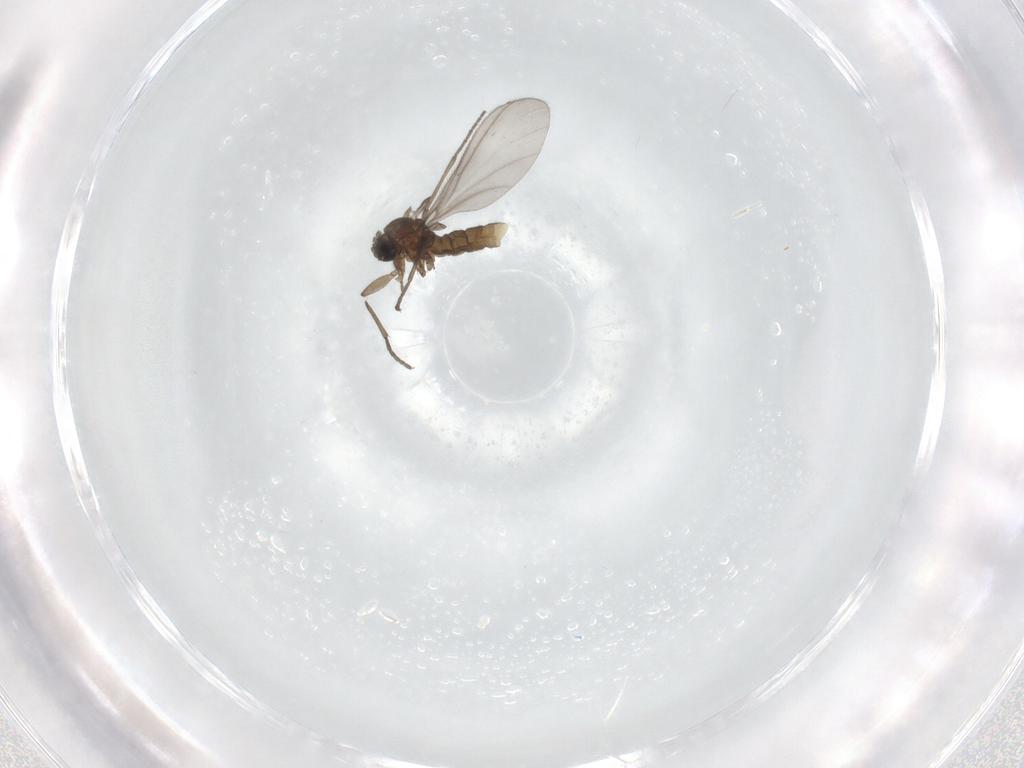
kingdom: Animalia
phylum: Arthropoda
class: Insecta
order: Diptera
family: Sciaridae
